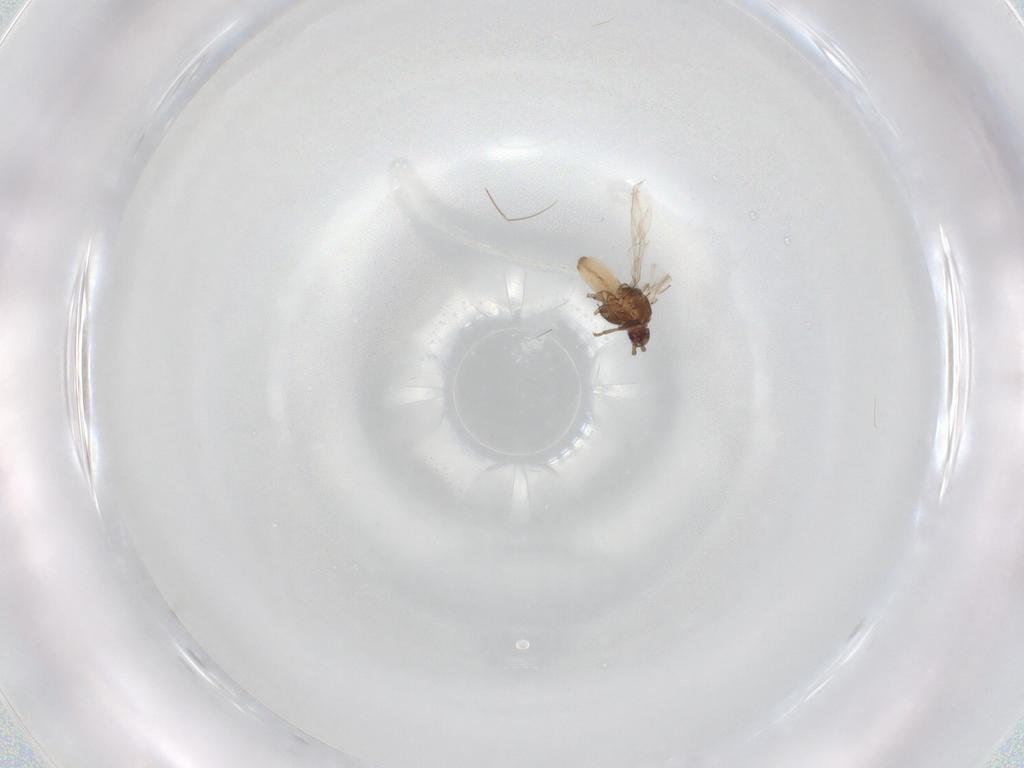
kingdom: Animalia
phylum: Arthropoda
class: Insecta
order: Hemiptera
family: Aphididae
